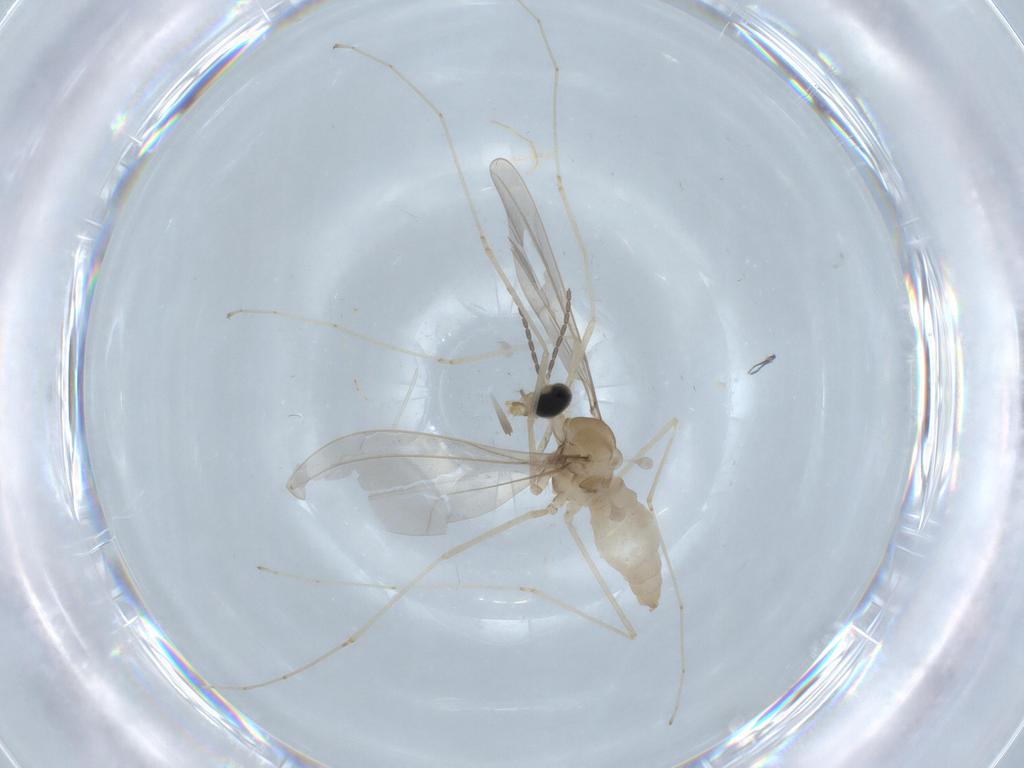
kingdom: Animalia
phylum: Arthropoda
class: Insecta
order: Diptera
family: Cecidomyiidae
